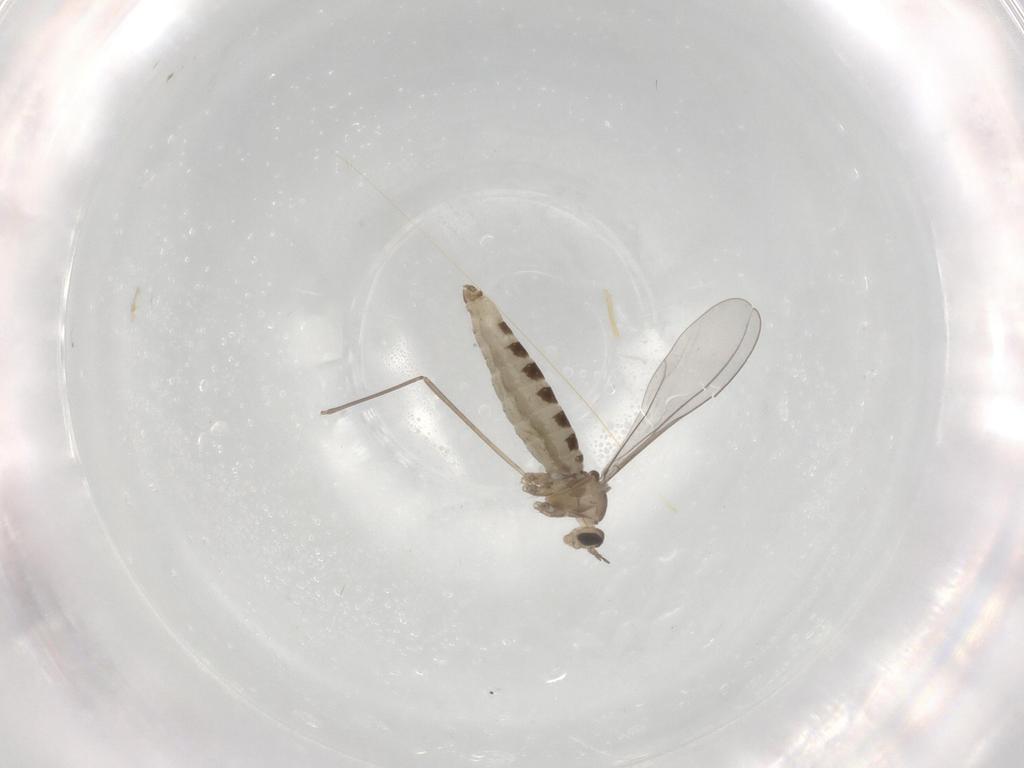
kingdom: Animalia
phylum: Arthropoda
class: Insecta
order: Diptera
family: Cecidomyiidae
